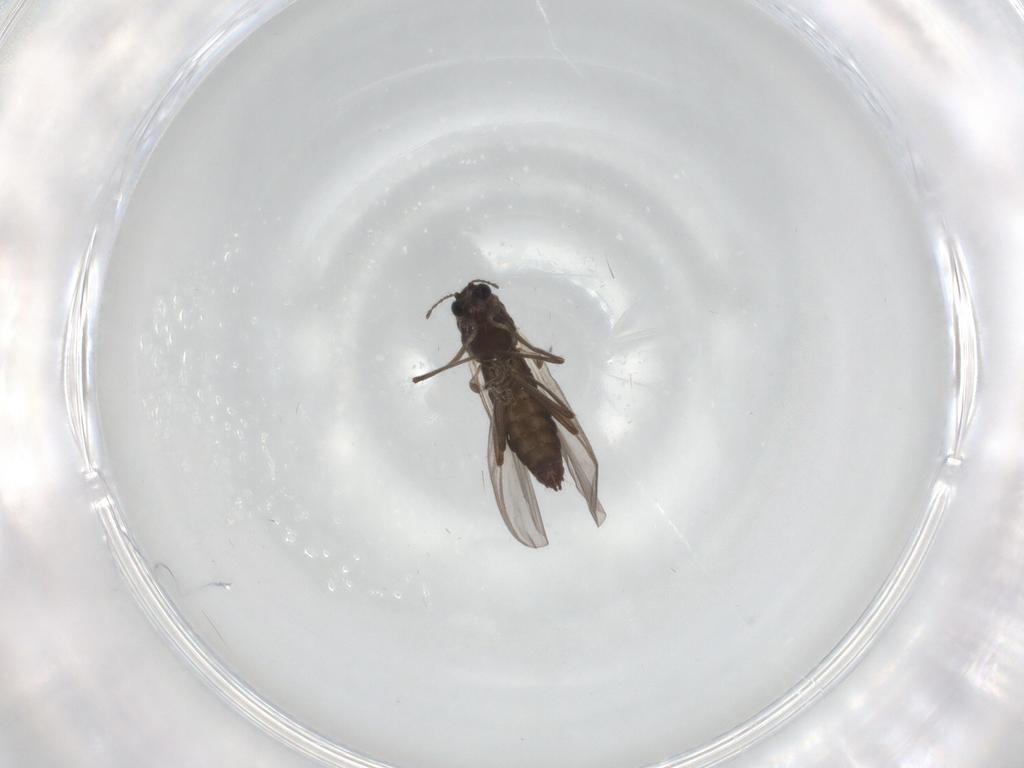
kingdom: Animalia
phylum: Arthropoda
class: Insecta
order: Diptera
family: Chironomidae
